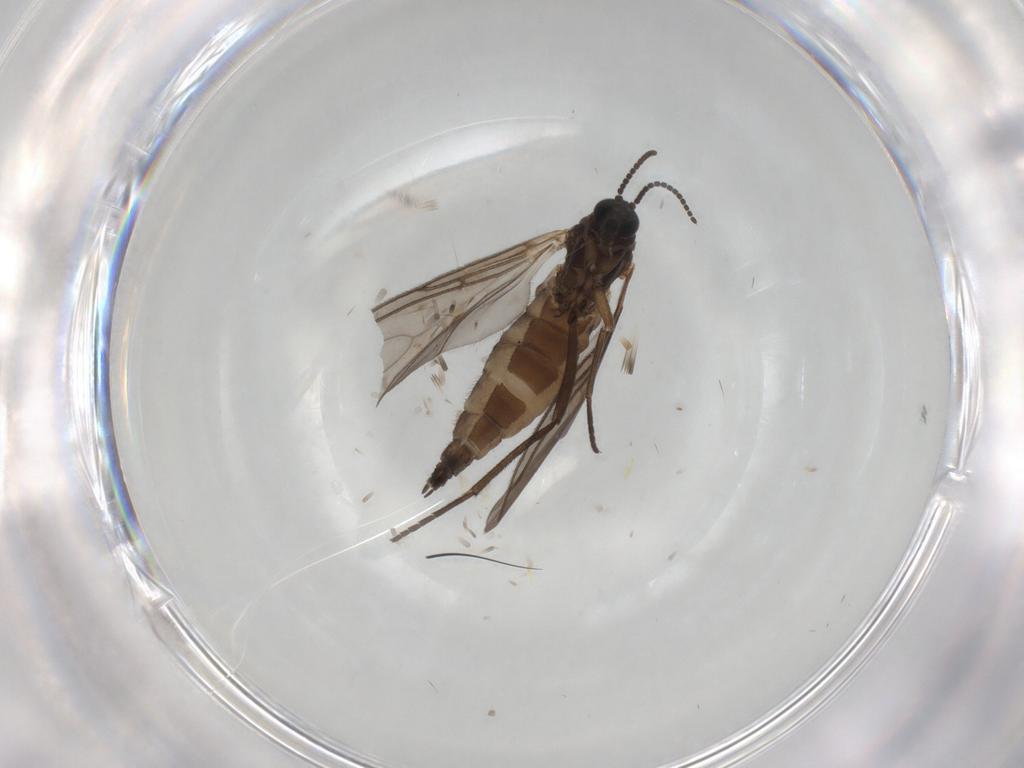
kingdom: Animalia
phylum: Arthropoda
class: Insecta
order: Diptera
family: Sciaridae
